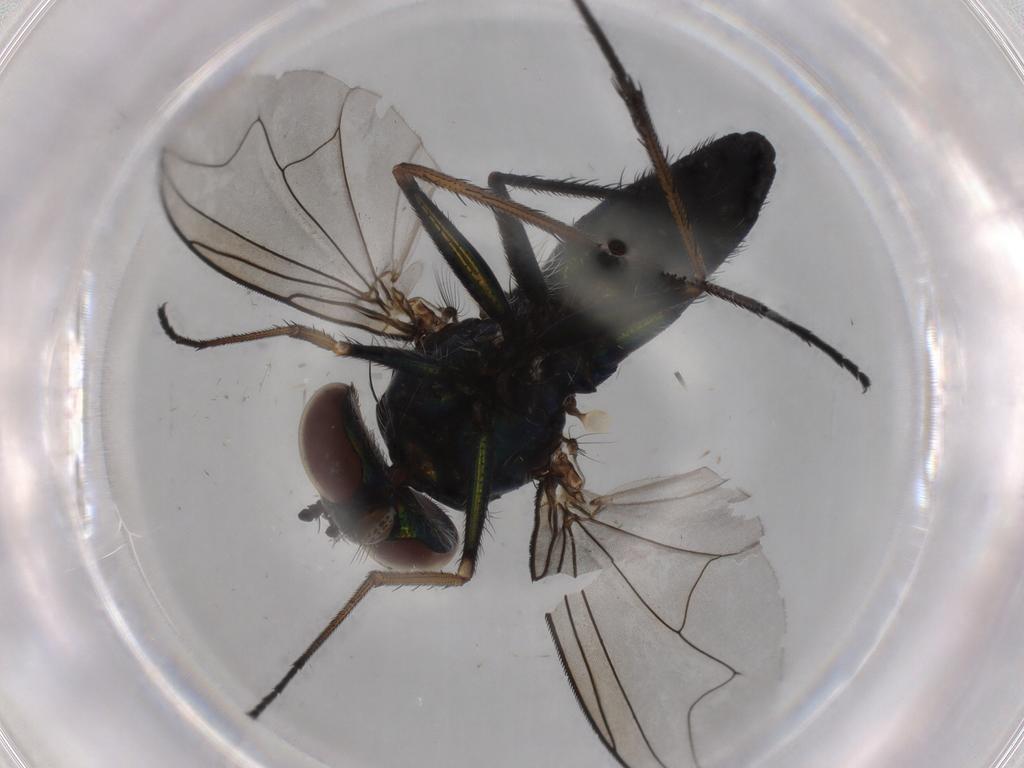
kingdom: Animalia
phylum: Arthropoda
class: Insecta
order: Diptera
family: Dolichopodidae
